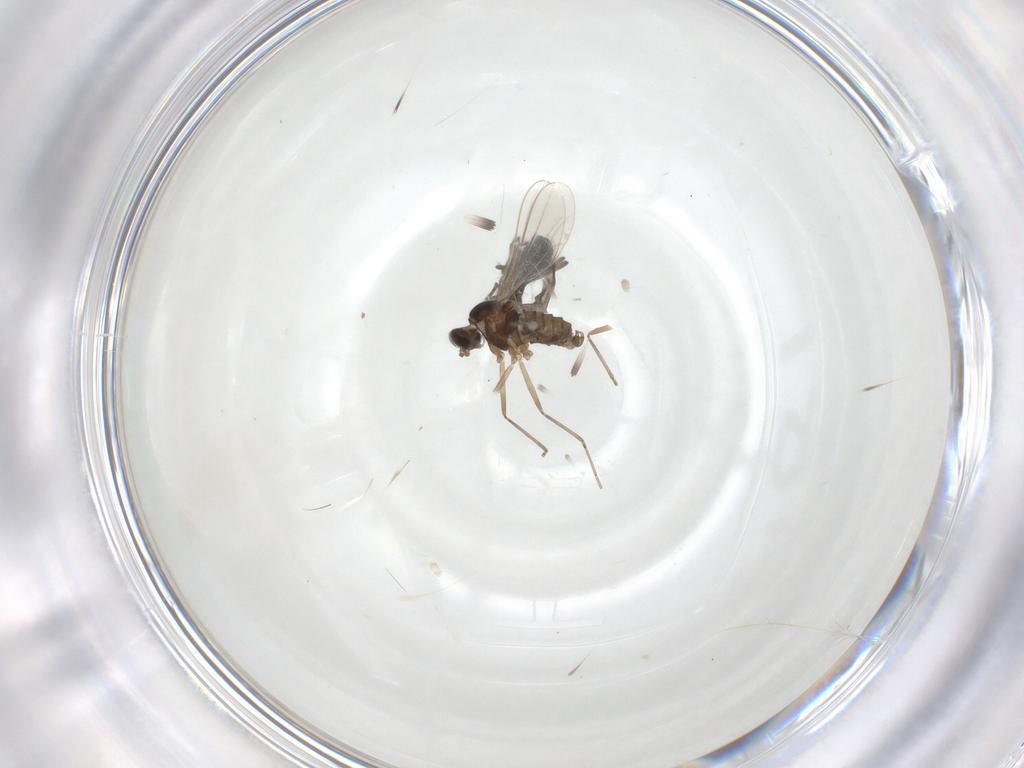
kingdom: Animalia
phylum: Arthropoda
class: Insecta
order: Diptera
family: Cecidomyiidae
